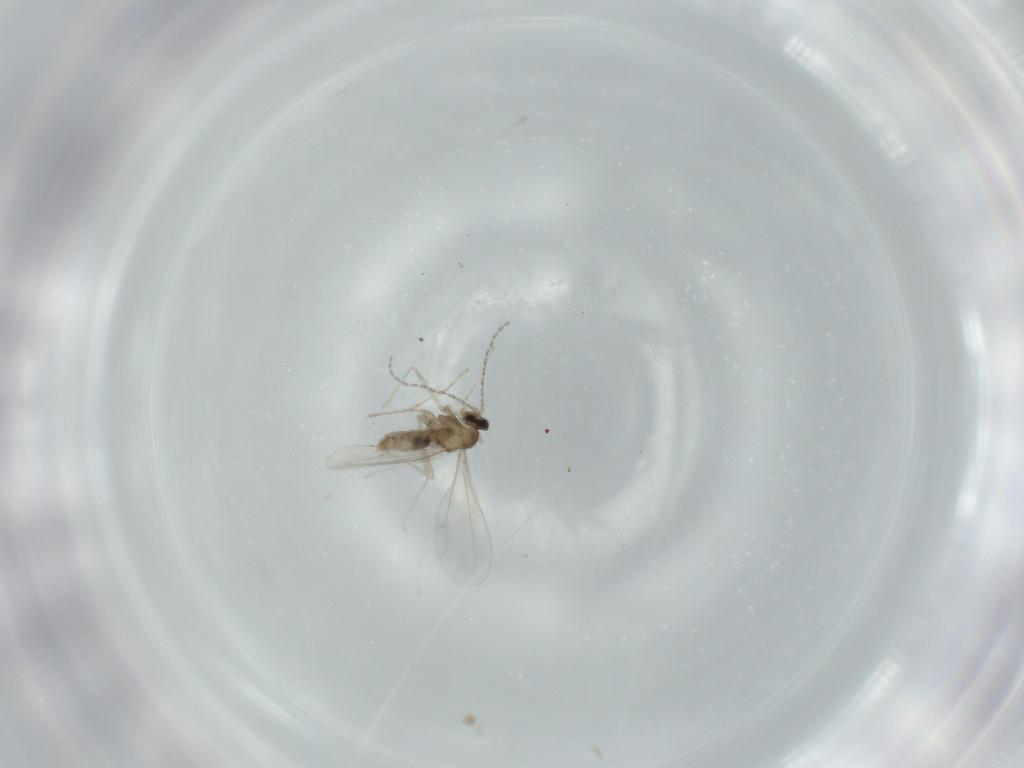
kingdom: Animalia
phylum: Arthropoda
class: Insecta
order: Diptera
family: Cecidomyiidae
